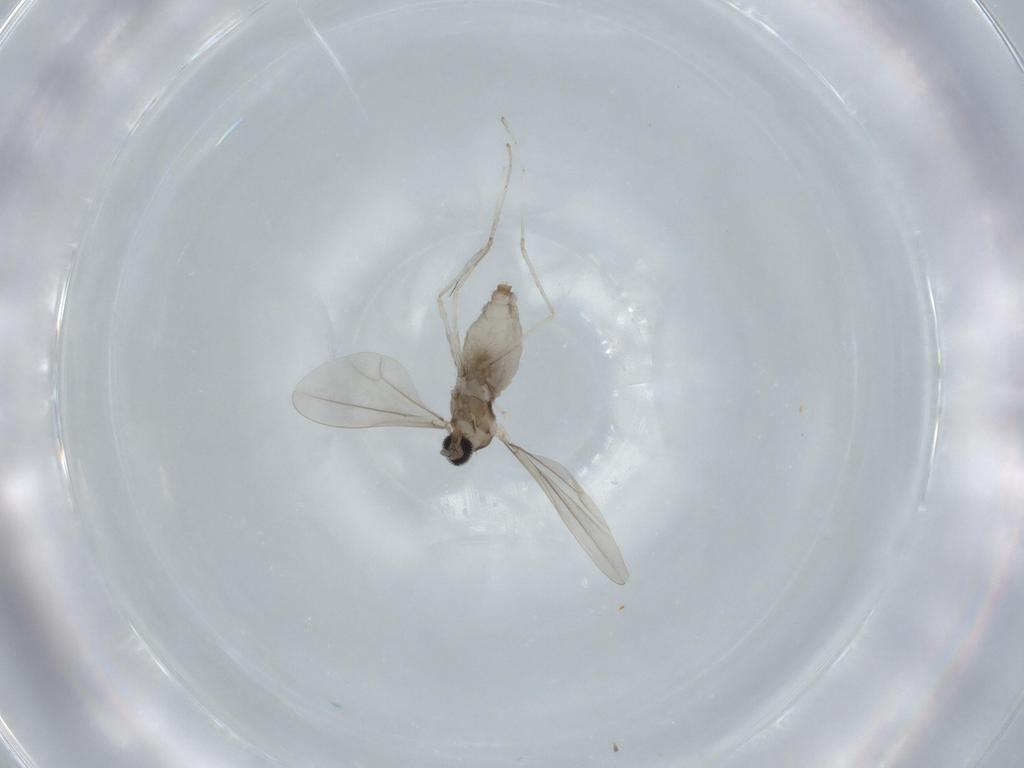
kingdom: Animalia
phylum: Arthropoda
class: Insecta
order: Diptera
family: Cecidomyiidae
